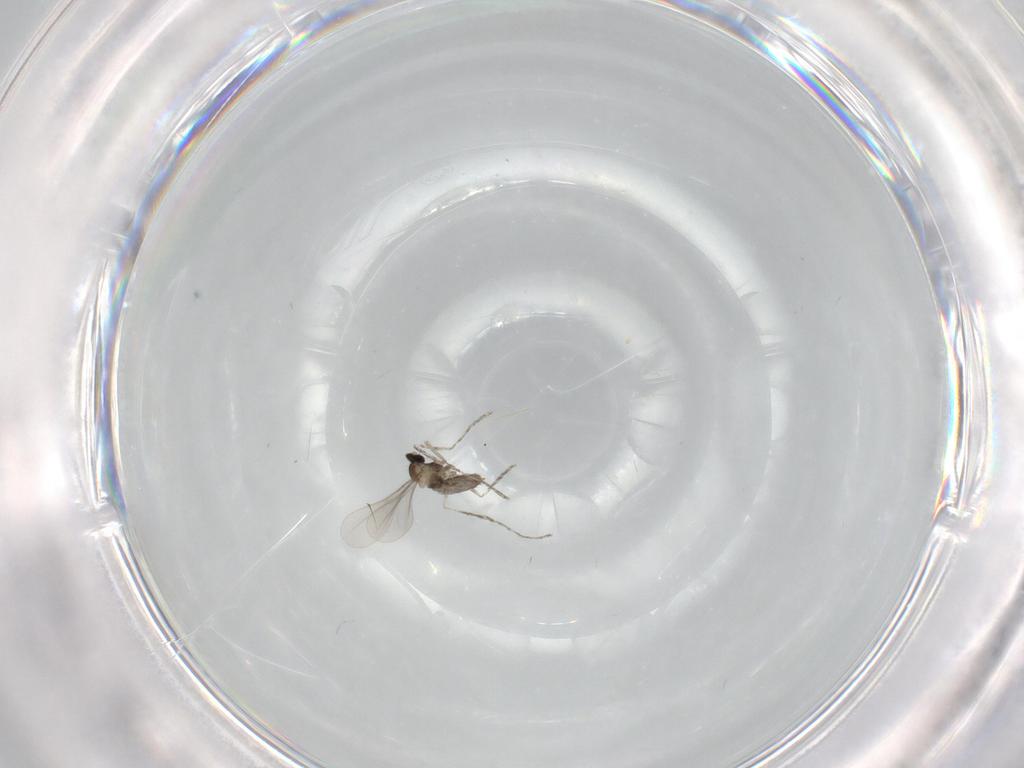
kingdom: Animalia
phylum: Arthropoda
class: Insecta
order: Diptera
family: Cecidomyiidae
